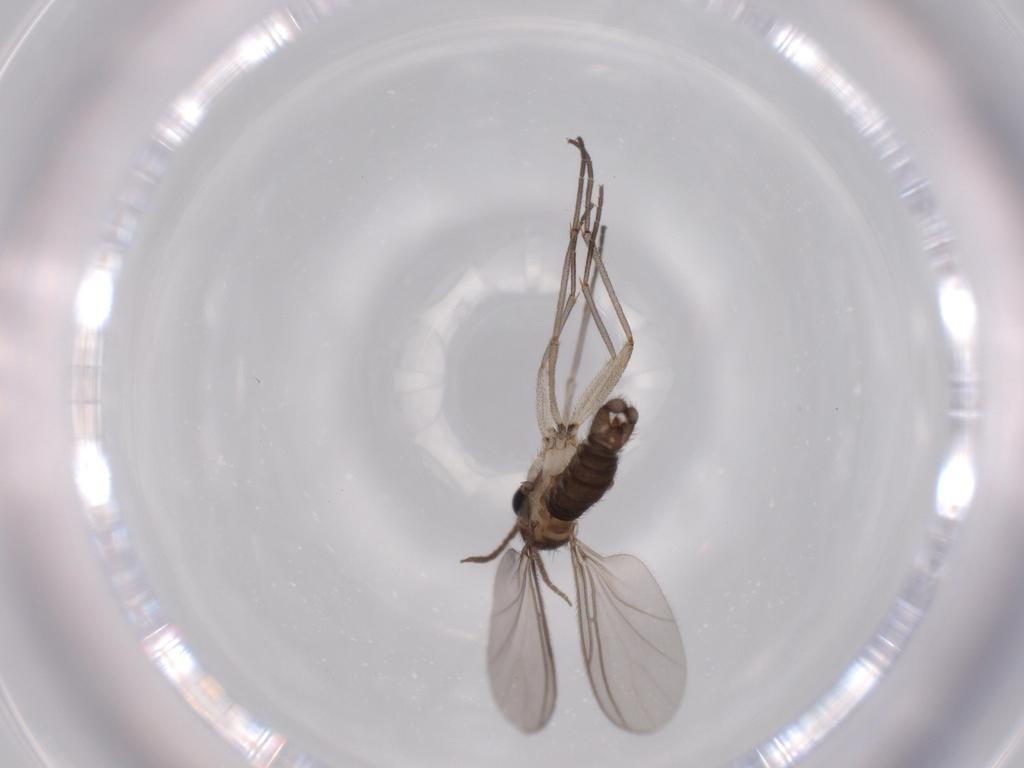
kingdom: Animalia
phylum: Arthropoda
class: Insecta
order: Diptera
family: Sciaridae
